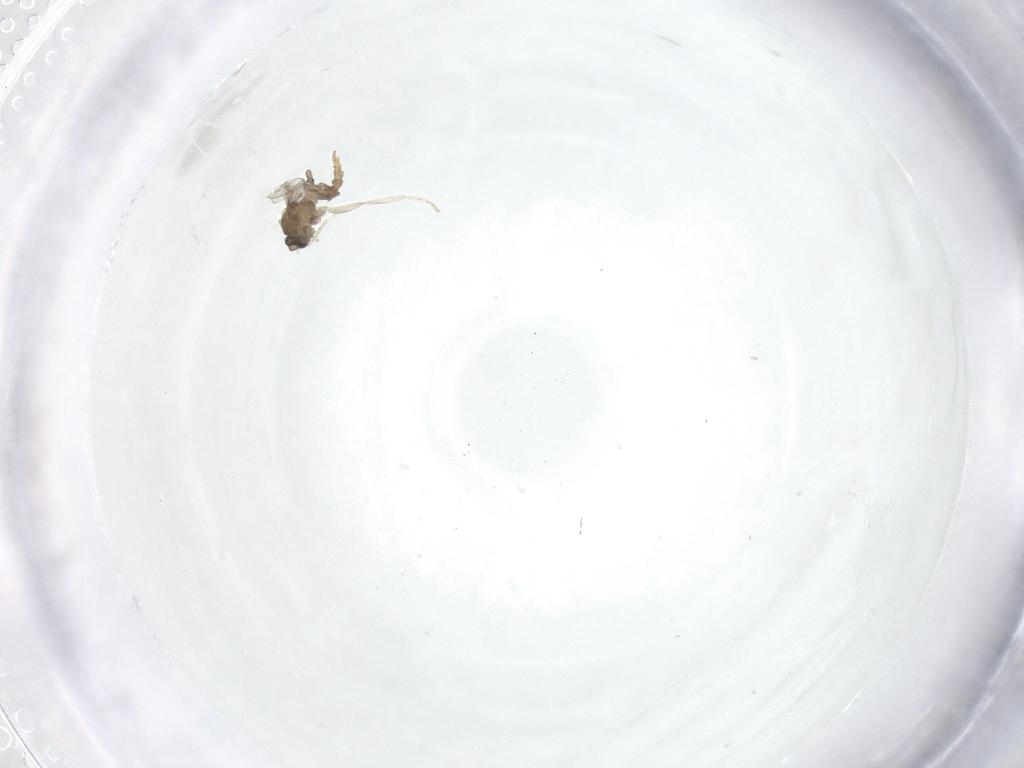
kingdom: Animalia
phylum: Arthropoda
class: Insecta
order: Diptera
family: Cecidomyiidae
